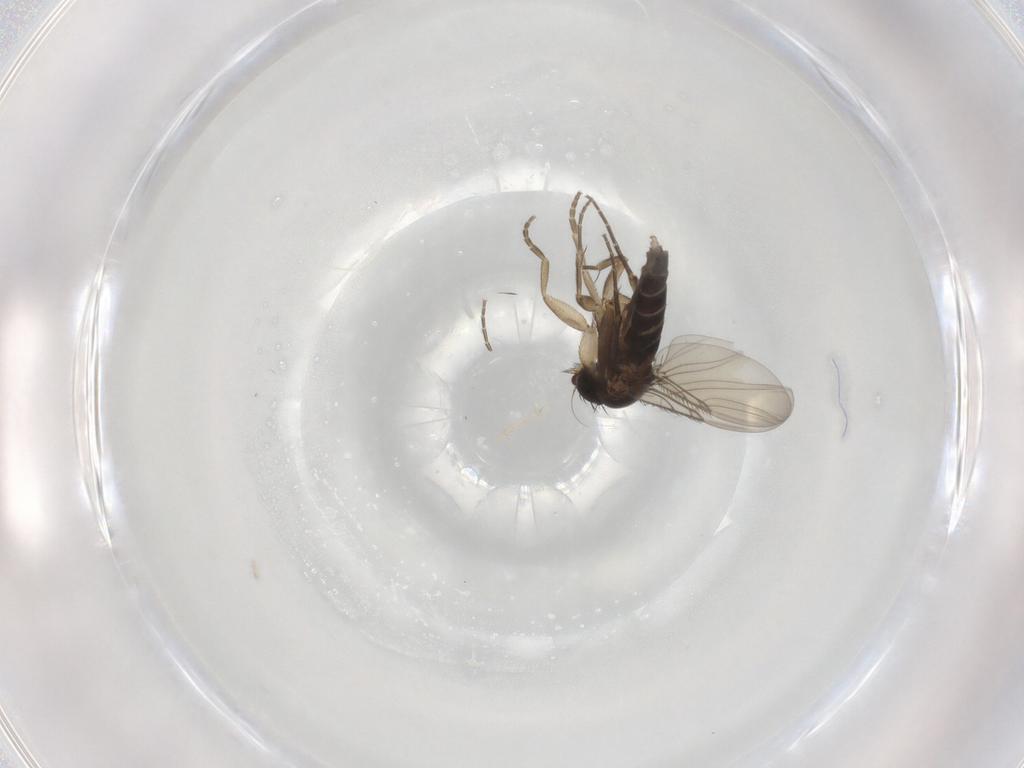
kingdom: Animalia
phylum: Arthropoda
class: Insecta
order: Diptera
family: Phoridae
